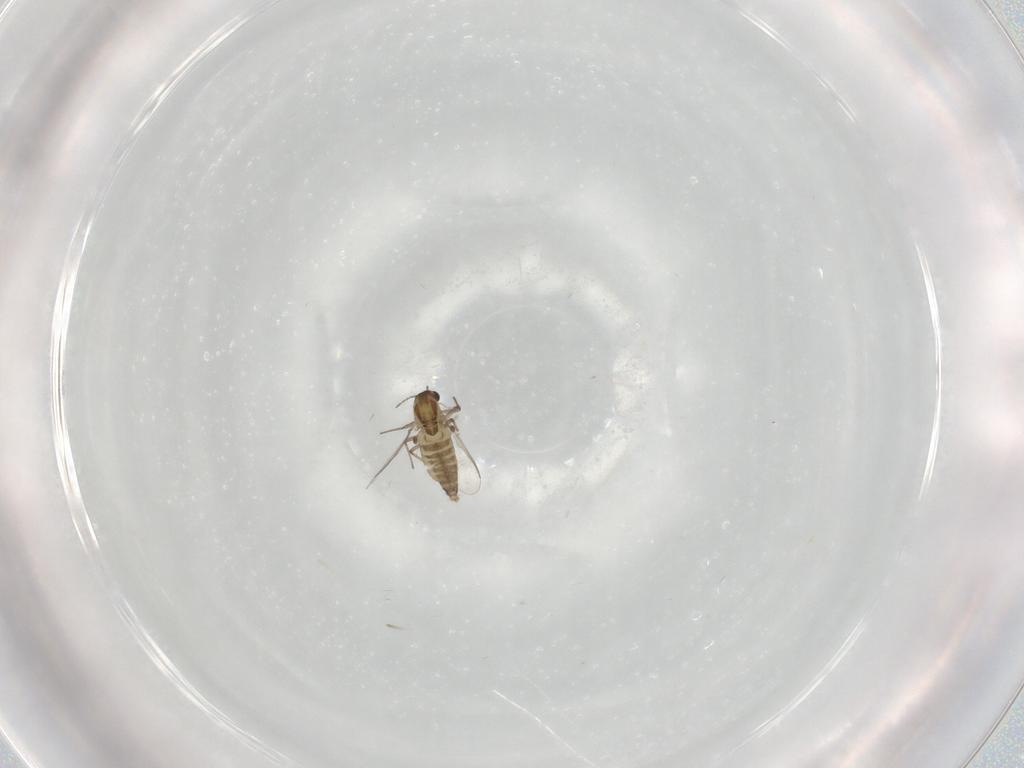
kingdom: Animalia
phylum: Arthropoda
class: Insecta
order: Diptera
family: Chironomidae
